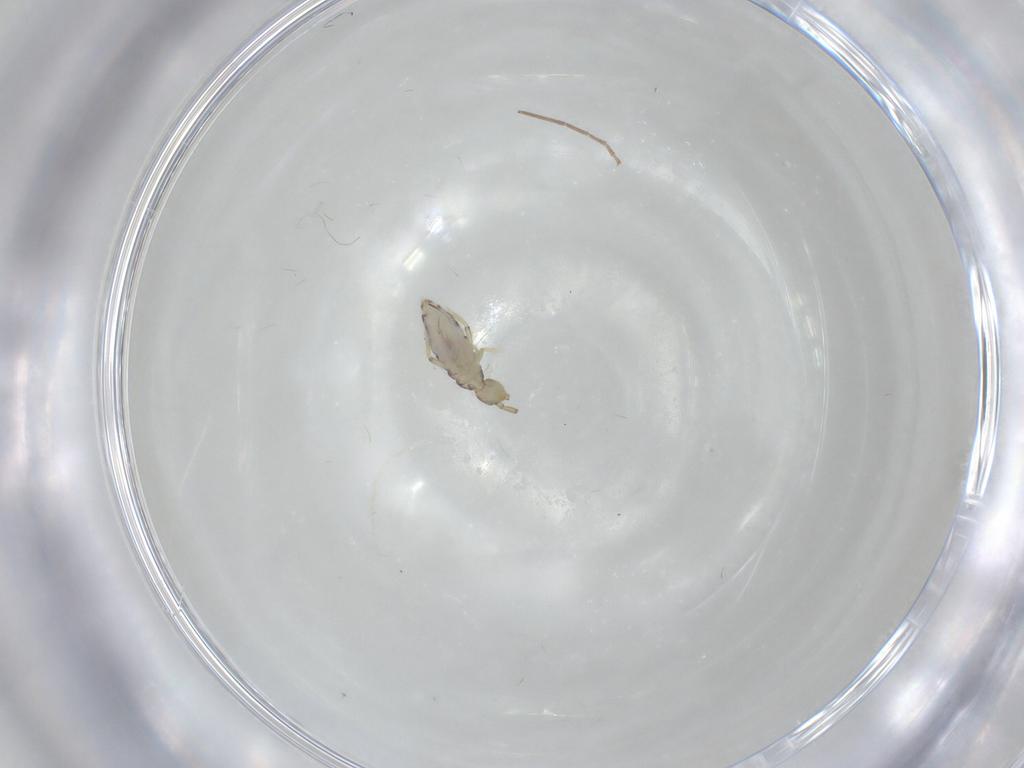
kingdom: Animalia
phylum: Arthropoda
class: Collembola
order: Entomobryomorpha
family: Entomobryidae
